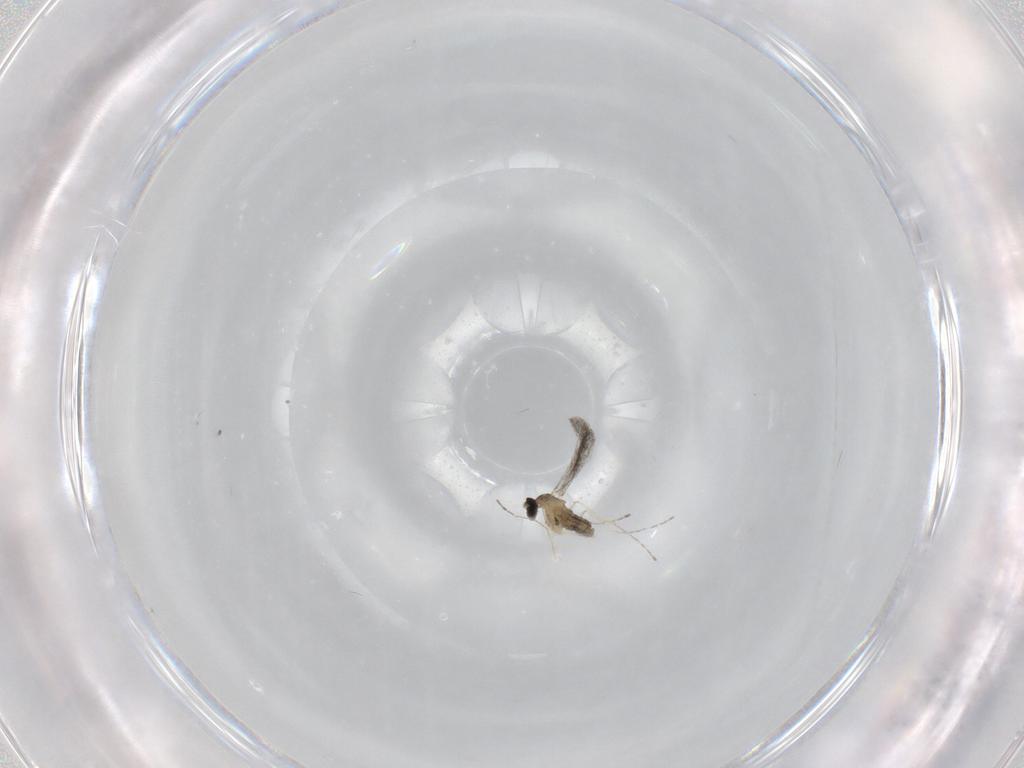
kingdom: Animalia
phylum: Arthropoda
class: Insecta
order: Diptera
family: Cecidomyiidae
